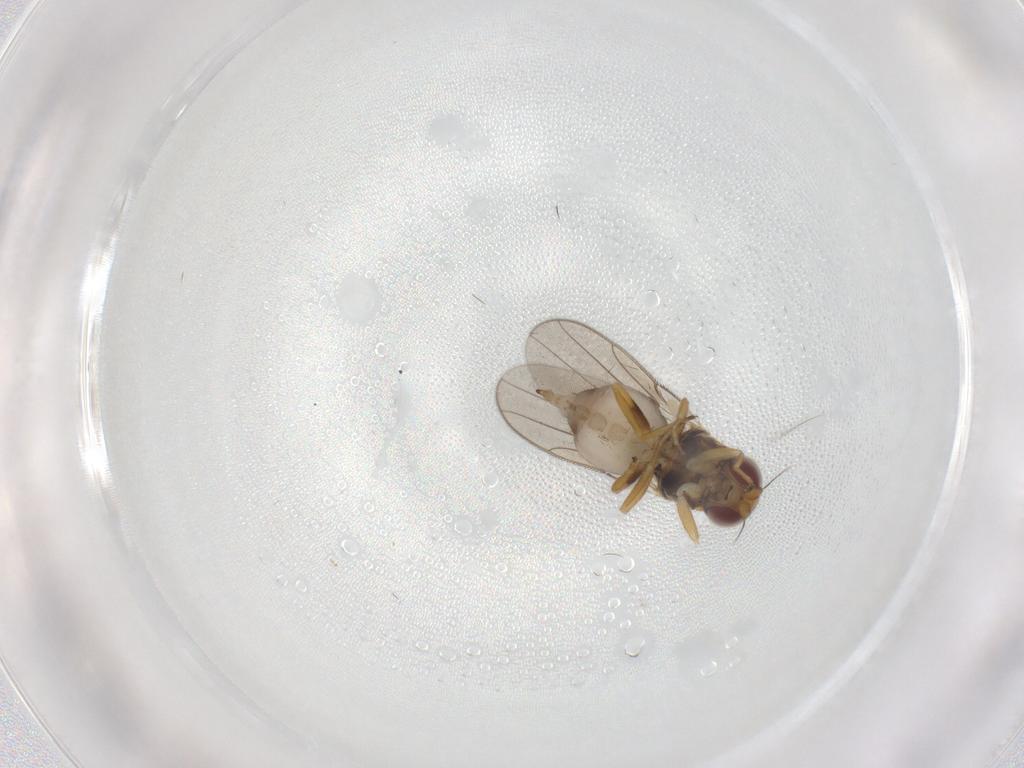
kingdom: Animalia
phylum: Arthropoda
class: Insecta
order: Diptera
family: Chloropidae
